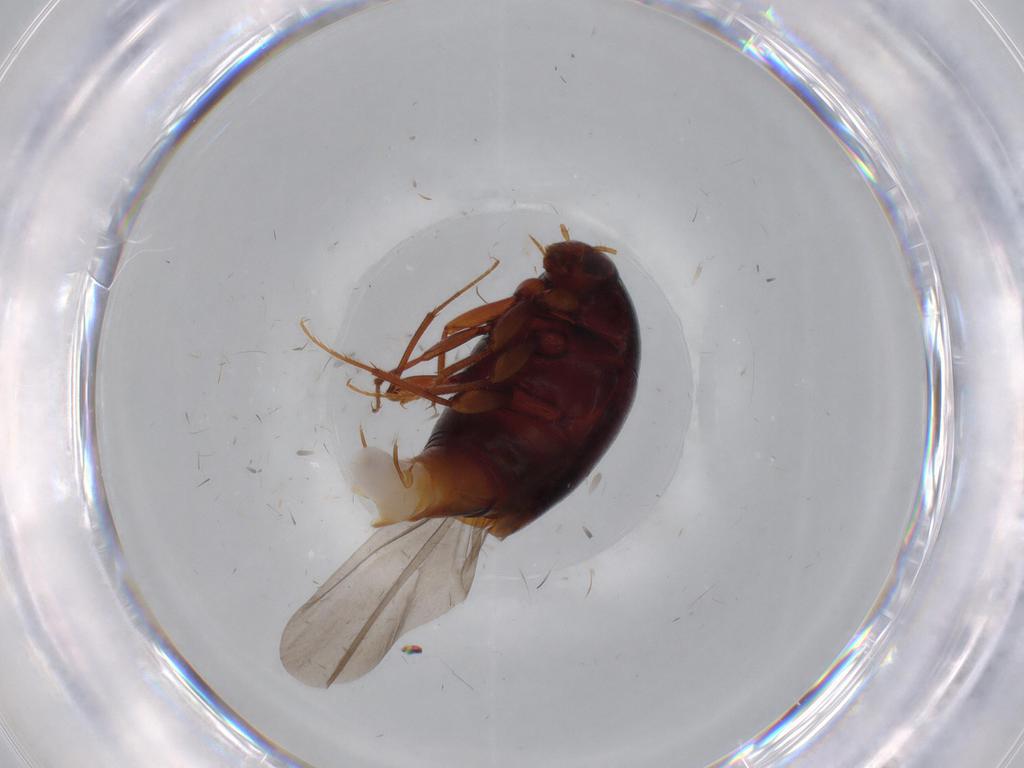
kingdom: Animalia
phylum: Arthropoda
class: Insecta
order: Coleoptera
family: Staphylinidae
